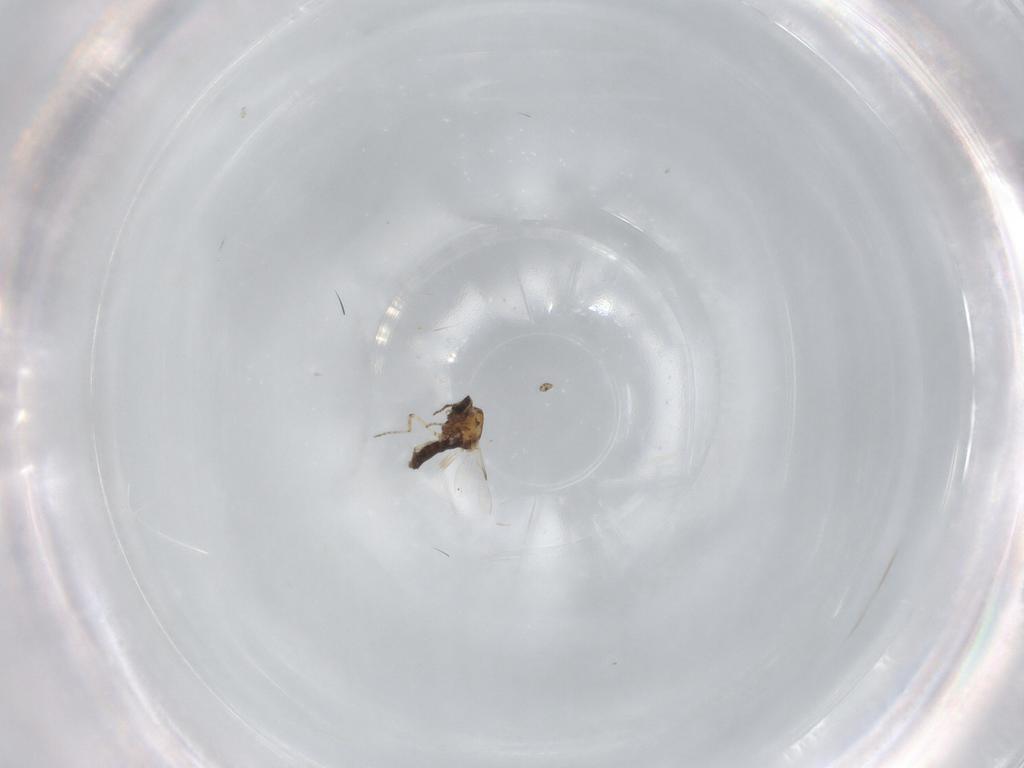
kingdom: Animalia
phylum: Arthropoda
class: Insecta
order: Diptera
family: Ceratopogonidae
